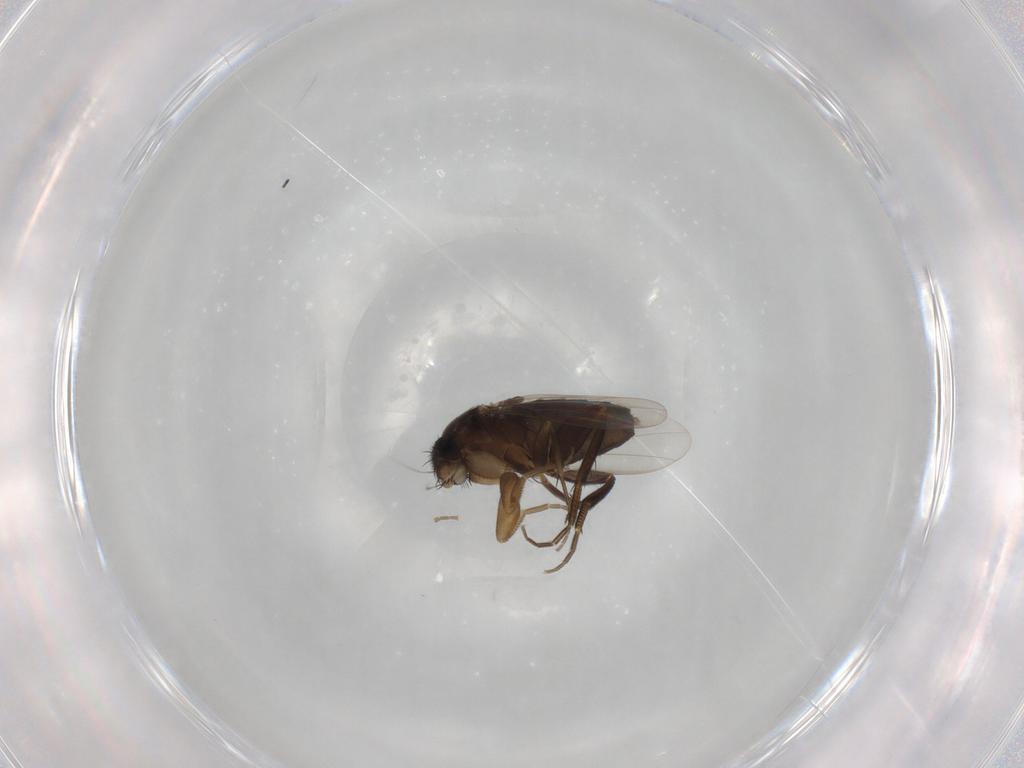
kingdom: Animalia
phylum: Arthropoda
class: Insecta
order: Diptera
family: Phoridae
